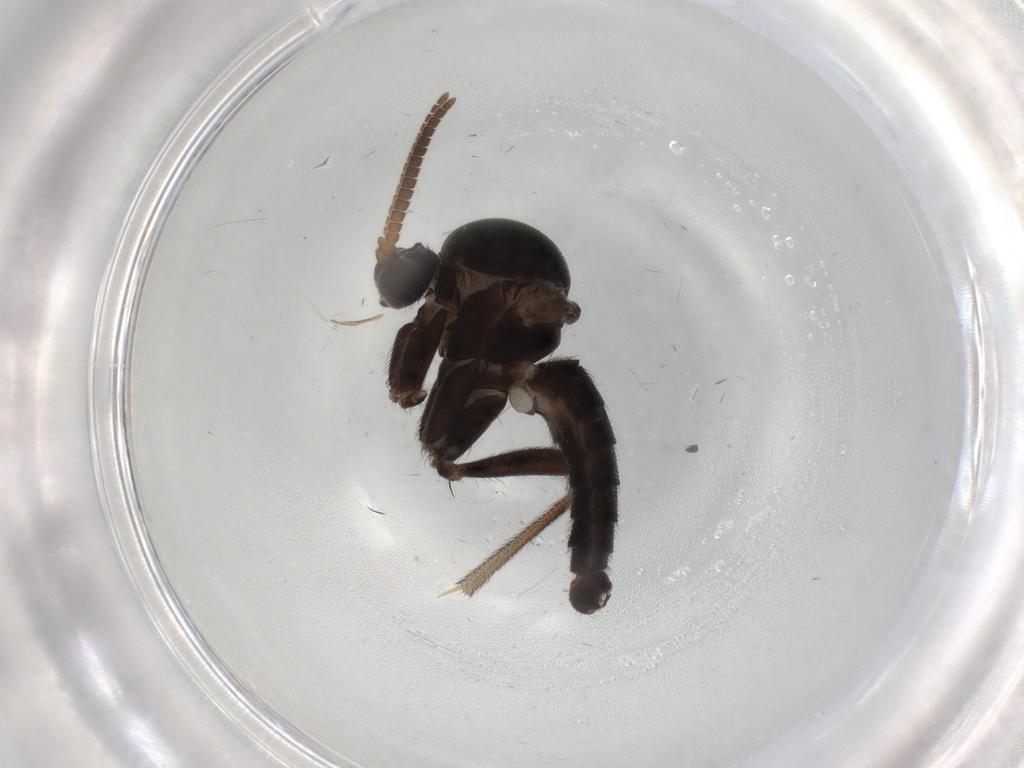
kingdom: Animalia
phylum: Arthropoda
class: Insecta
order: Diptera
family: Mycetophilidae
